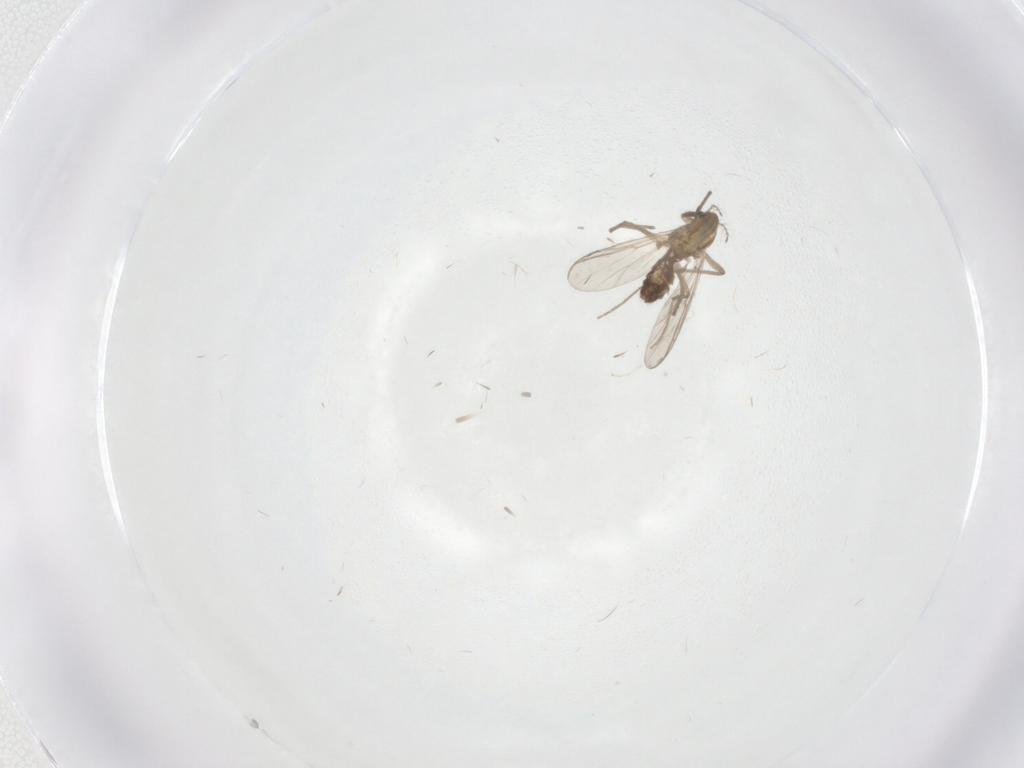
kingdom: Animalia
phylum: Arthropoda
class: Insecta
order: Diptera
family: Chironomidae
